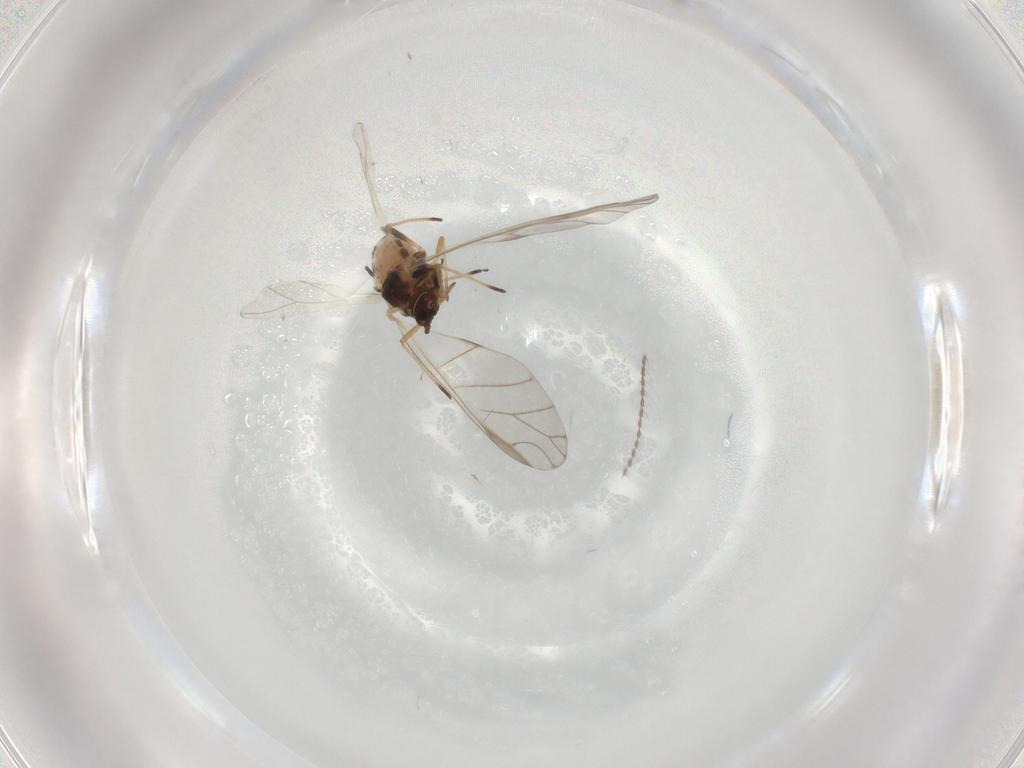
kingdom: Animalia
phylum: Arthropoda
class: Insecta
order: Hemiptera
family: Aphididae
